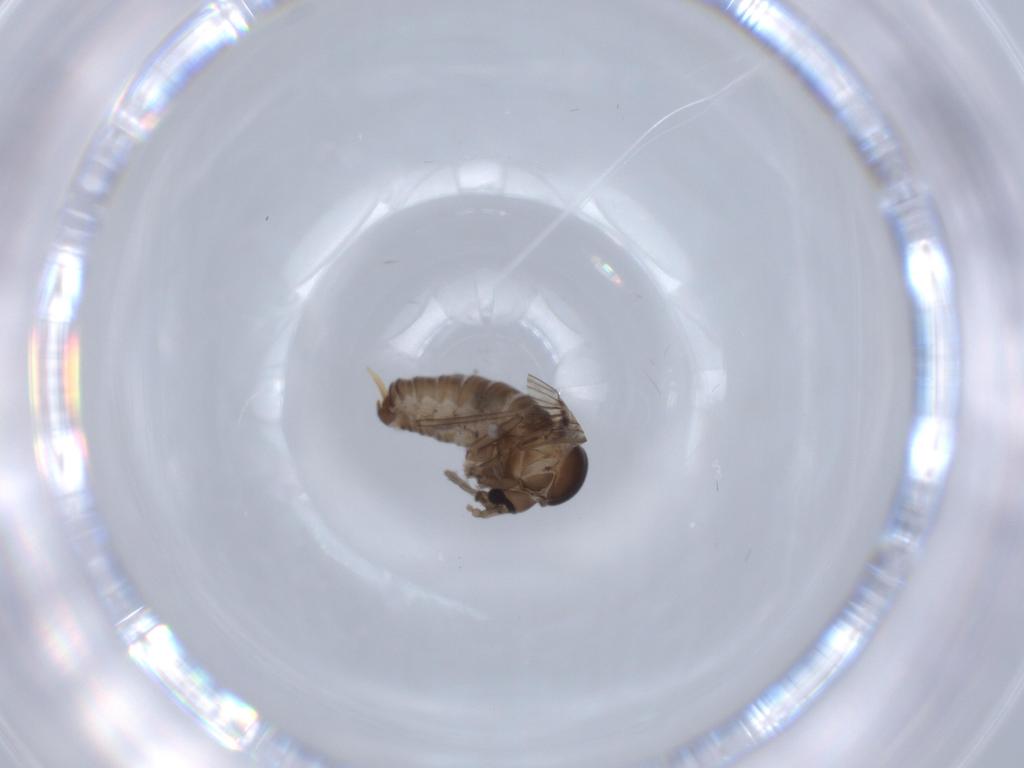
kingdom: Animalia
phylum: Arthropoda
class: Insecta
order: Diptera
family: Psychodidae
